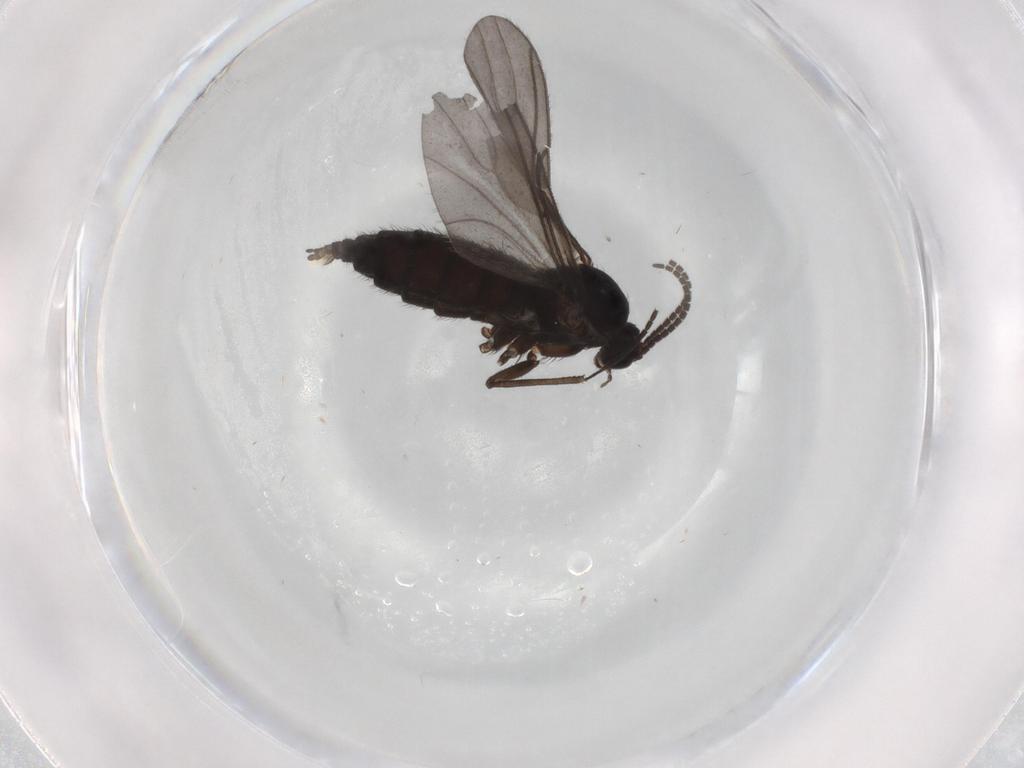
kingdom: Animalia
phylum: Arthropoda
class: Insecta
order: Diptera
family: Sciaridae
